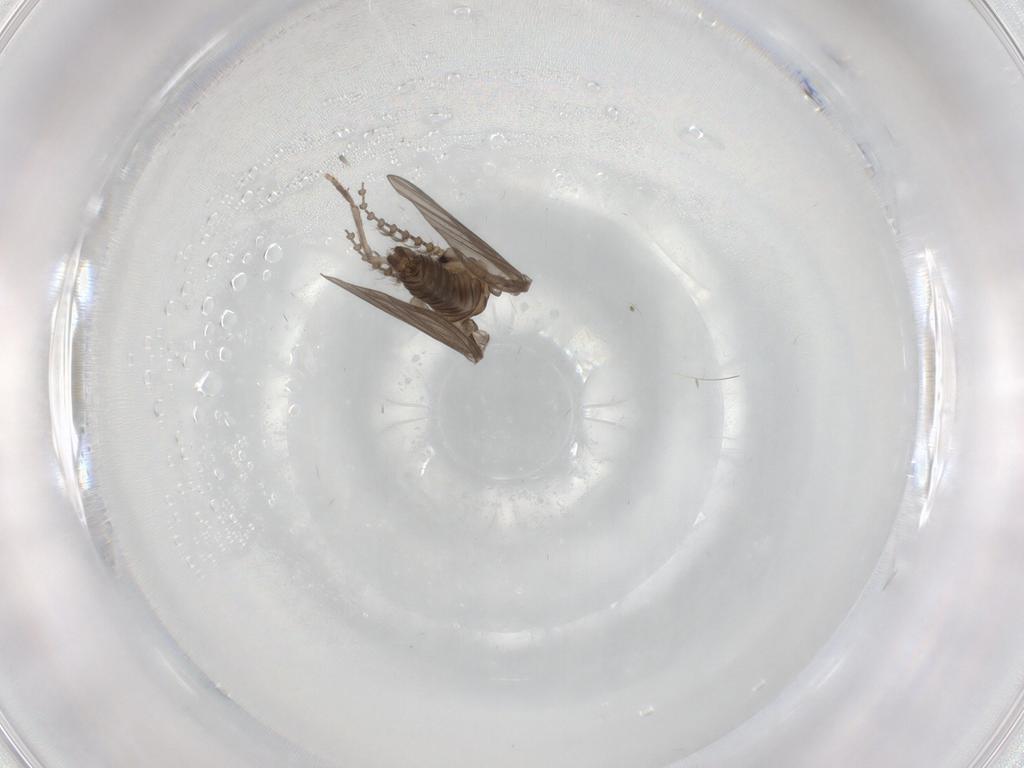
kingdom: Animalia
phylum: Arthropoda
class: Insecta
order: Diptera
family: Psychodidae
